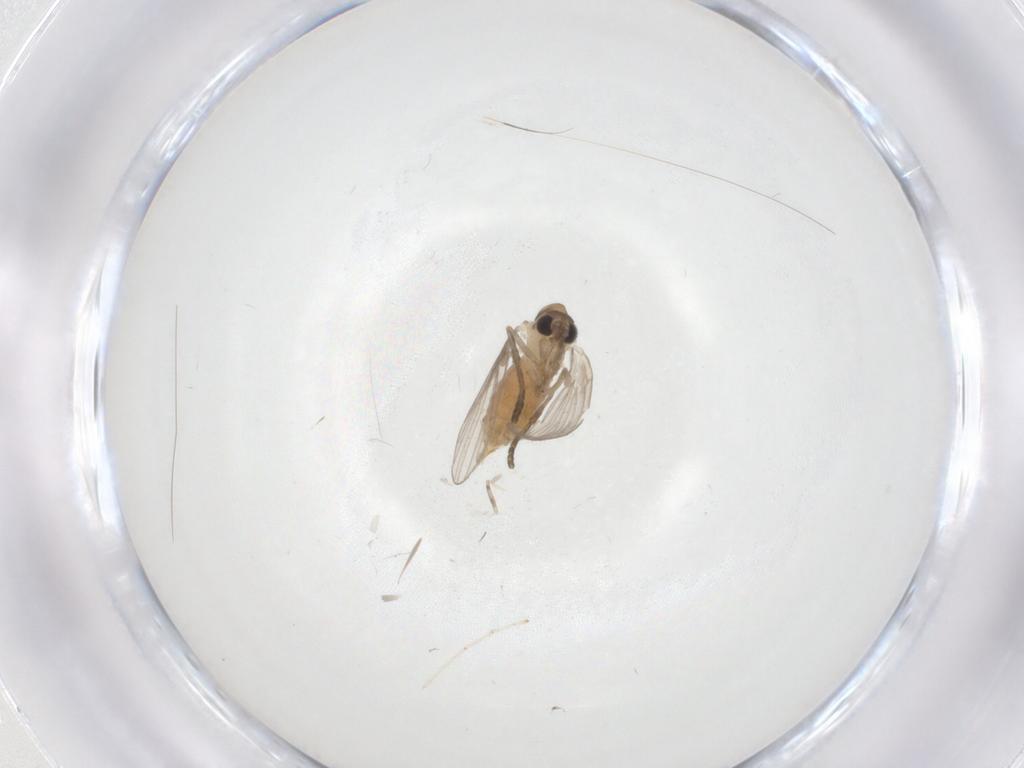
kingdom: Animalia
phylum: Arthropoda
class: Insecta
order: Diptera
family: Cecidomyiidae
